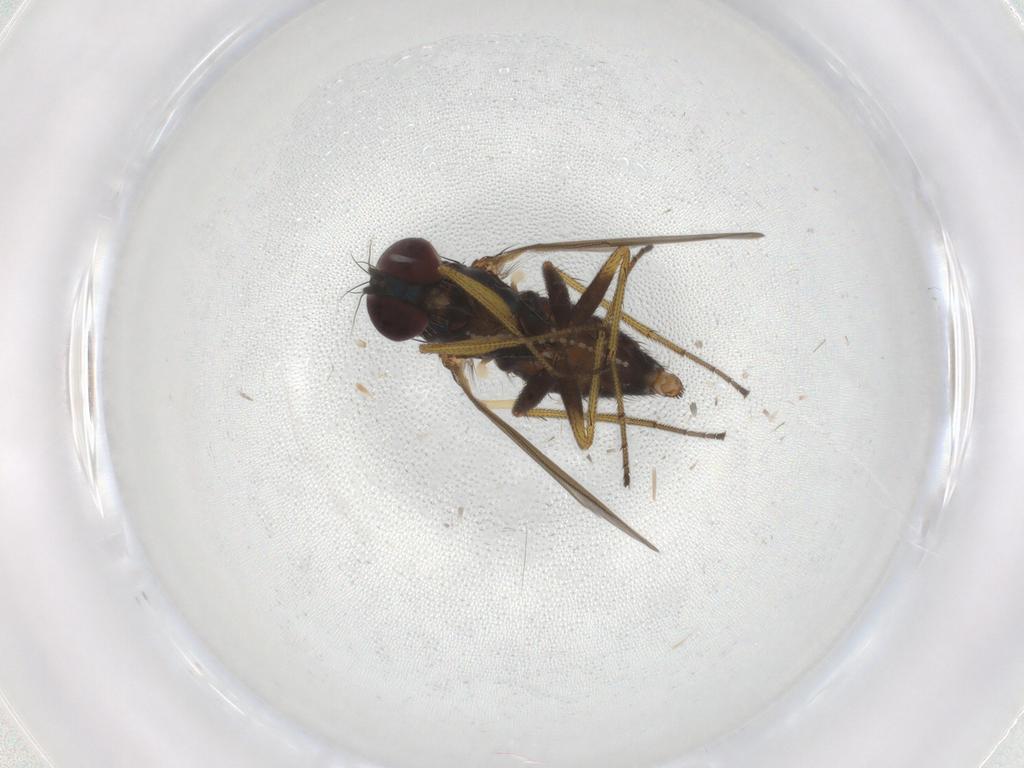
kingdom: Animalia
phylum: Arthropoda
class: Insecta
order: Diptera
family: Dolichopodidae
